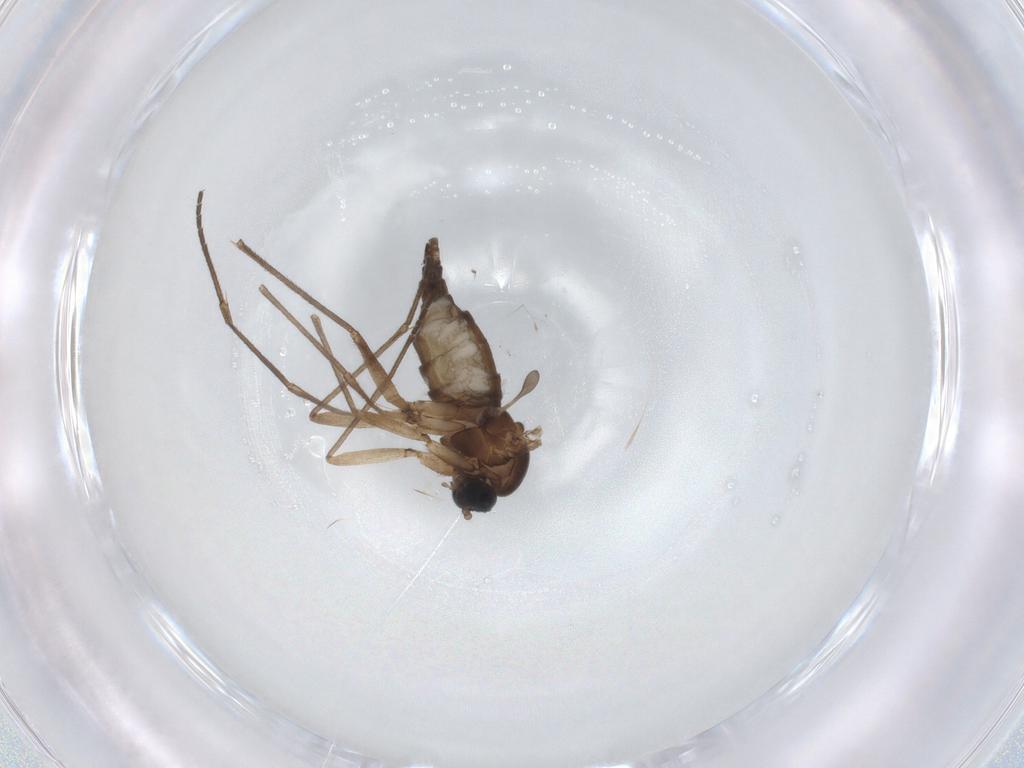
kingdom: Animalia
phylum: Arthropoda
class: Insecta
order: Diptera
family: Sciaridae
